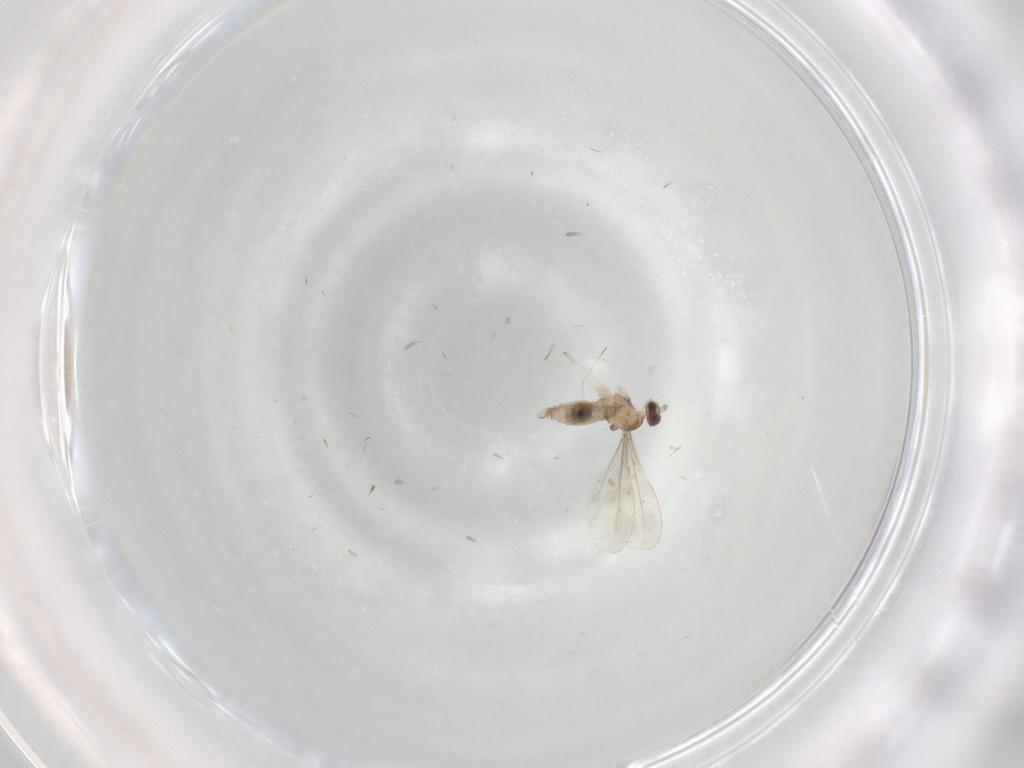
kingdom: Animalia
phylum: Arthropoda
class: Insecta
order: Diptera
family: Cecidomyiidae
